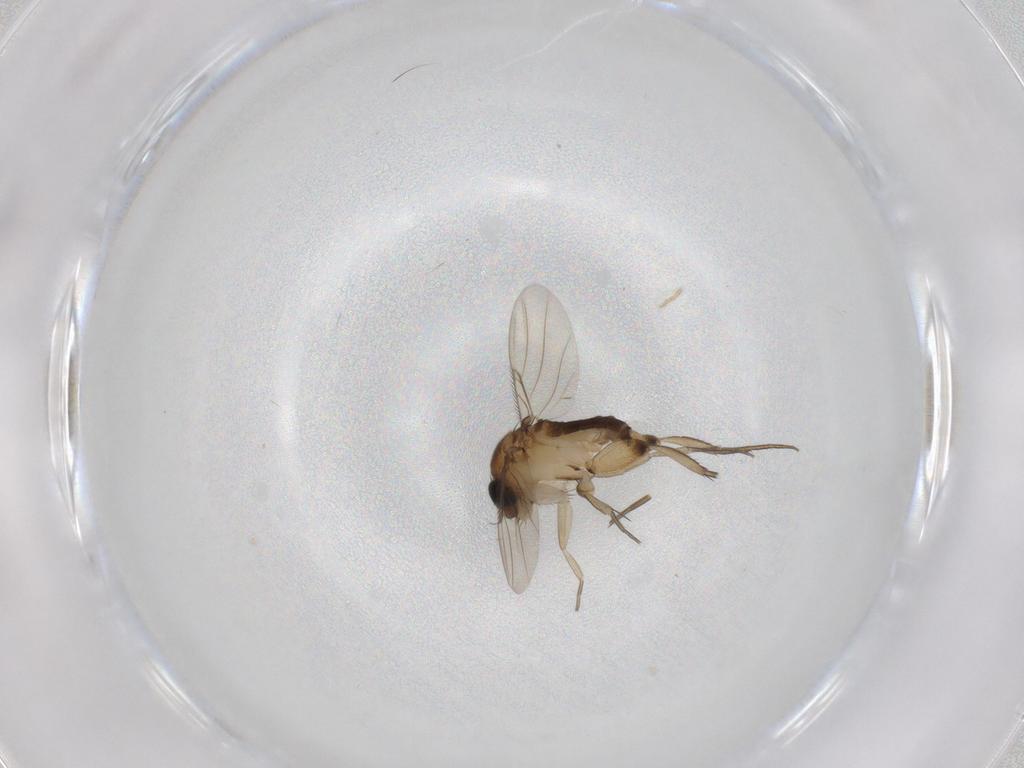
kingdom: Animalia
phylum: Arthropoda
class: Insecta
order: Diptera
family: Phoridae
